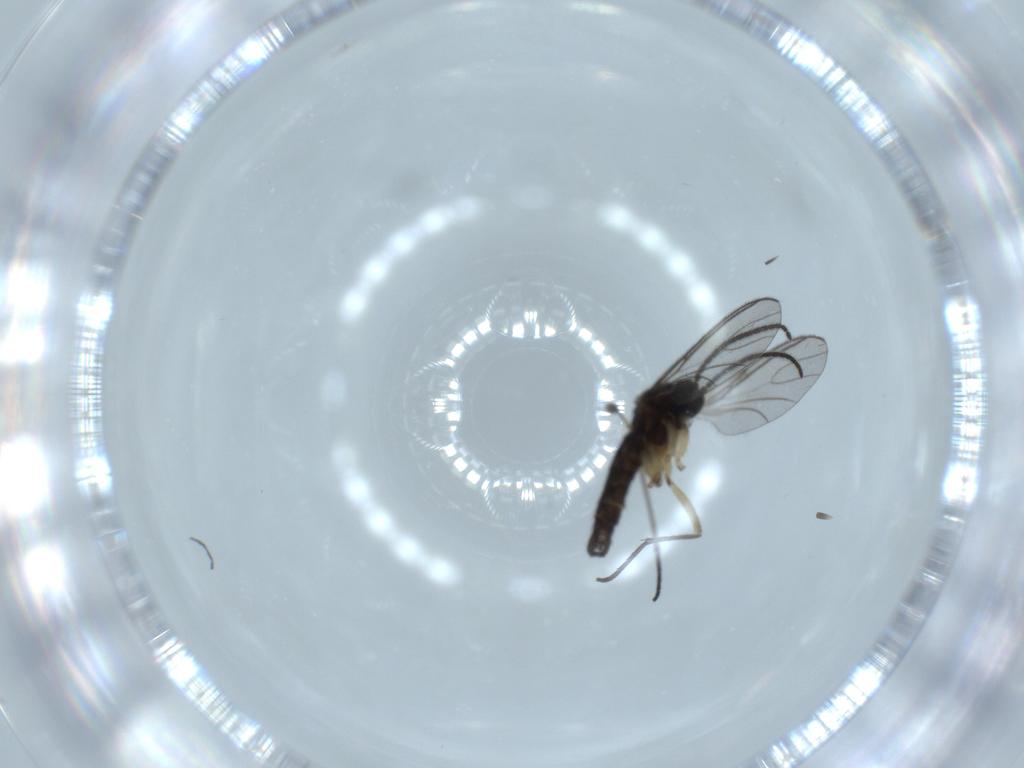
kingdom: Animalia
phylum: Arthropoda
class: Insecta
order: Diptera
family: Sciaridae
